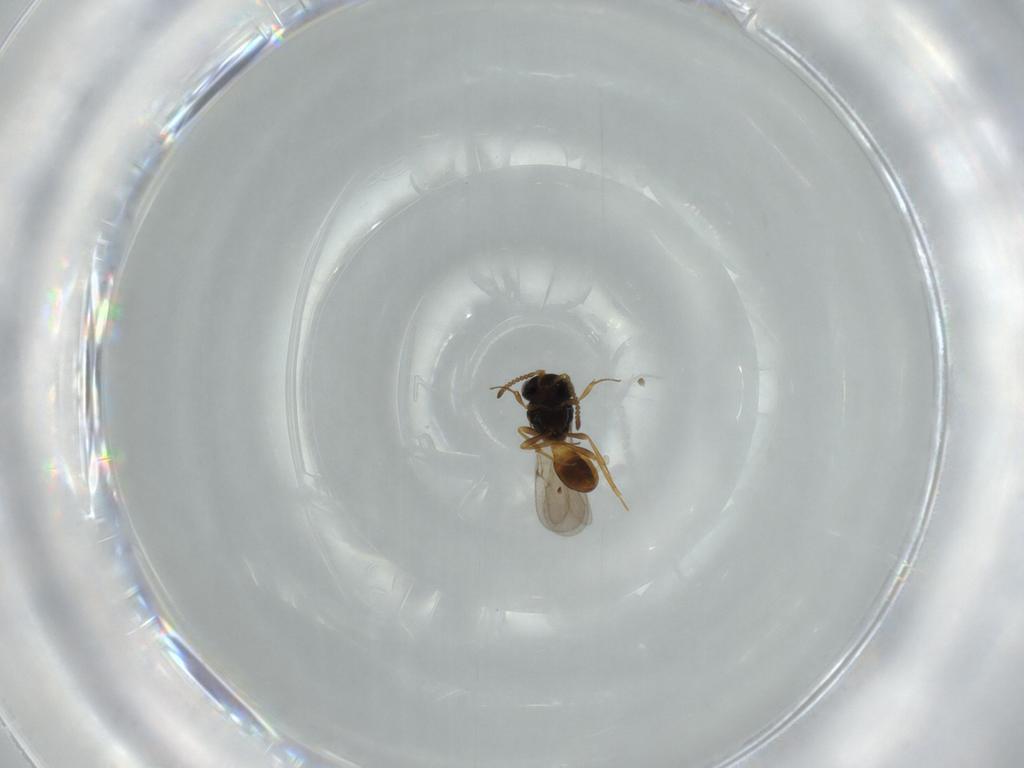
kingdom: Animalia
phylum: Arthropoda
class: Insecta
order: Hymenoptera
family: Scelionidae
